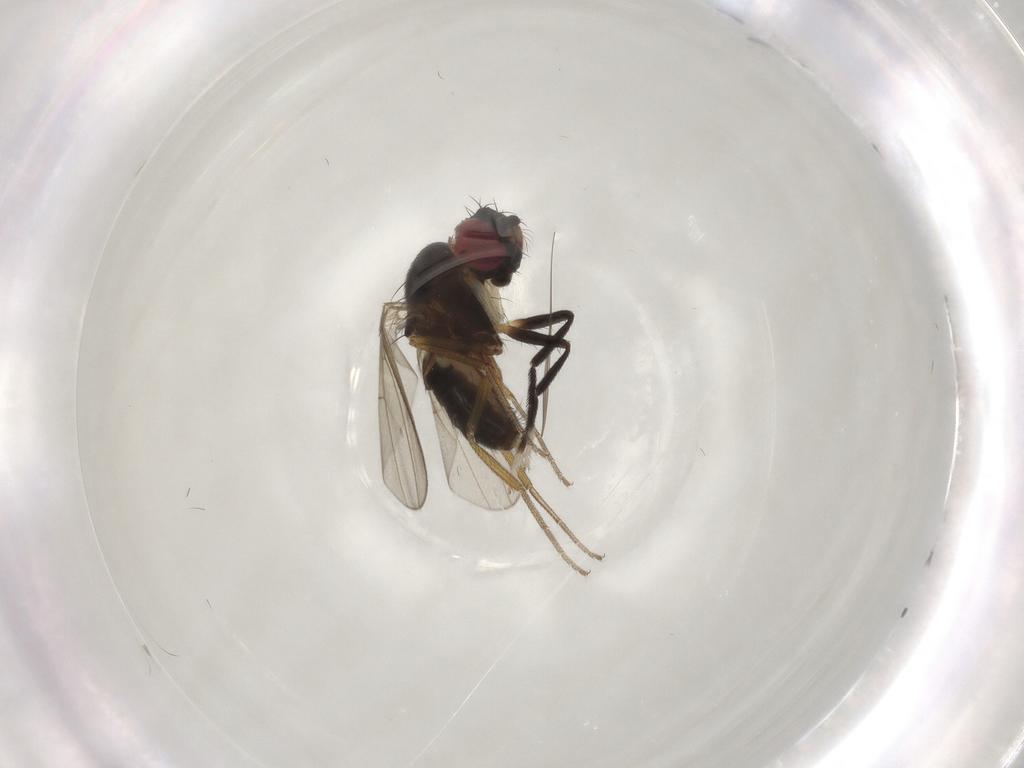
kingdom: Animalia
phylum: Arthropoda
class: Insecta
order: Diptera
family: Drosophilidae
